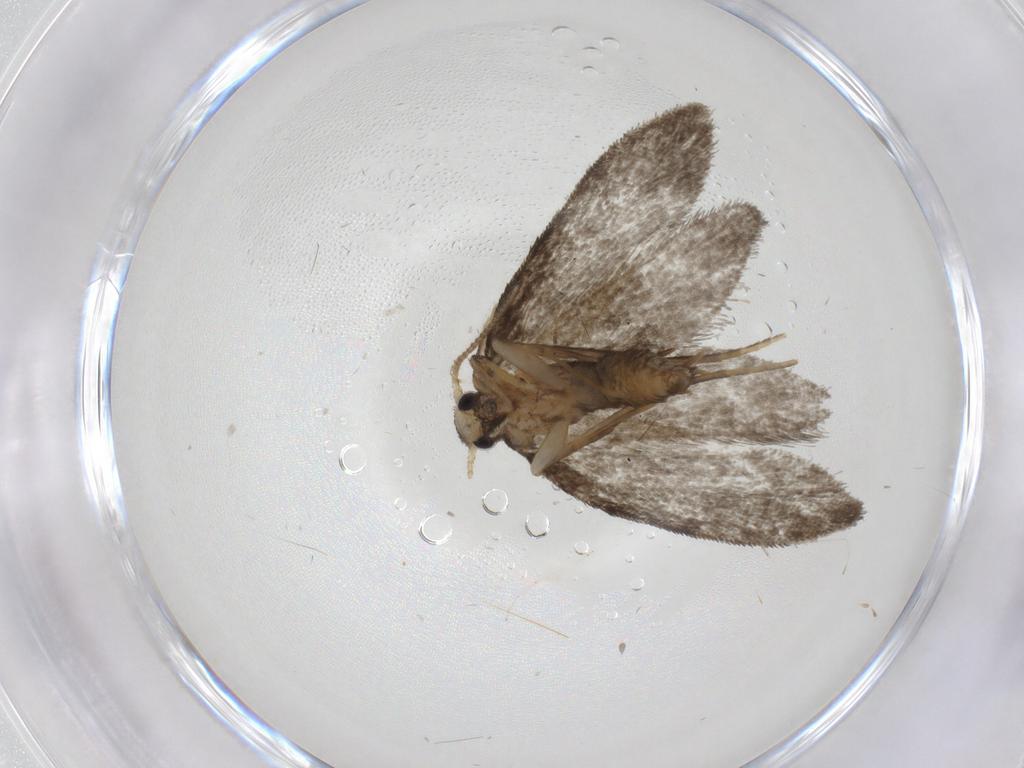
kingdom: Animalia
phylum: Arthropoda
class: Insecta
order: Lepidoptera
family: Psychidae
